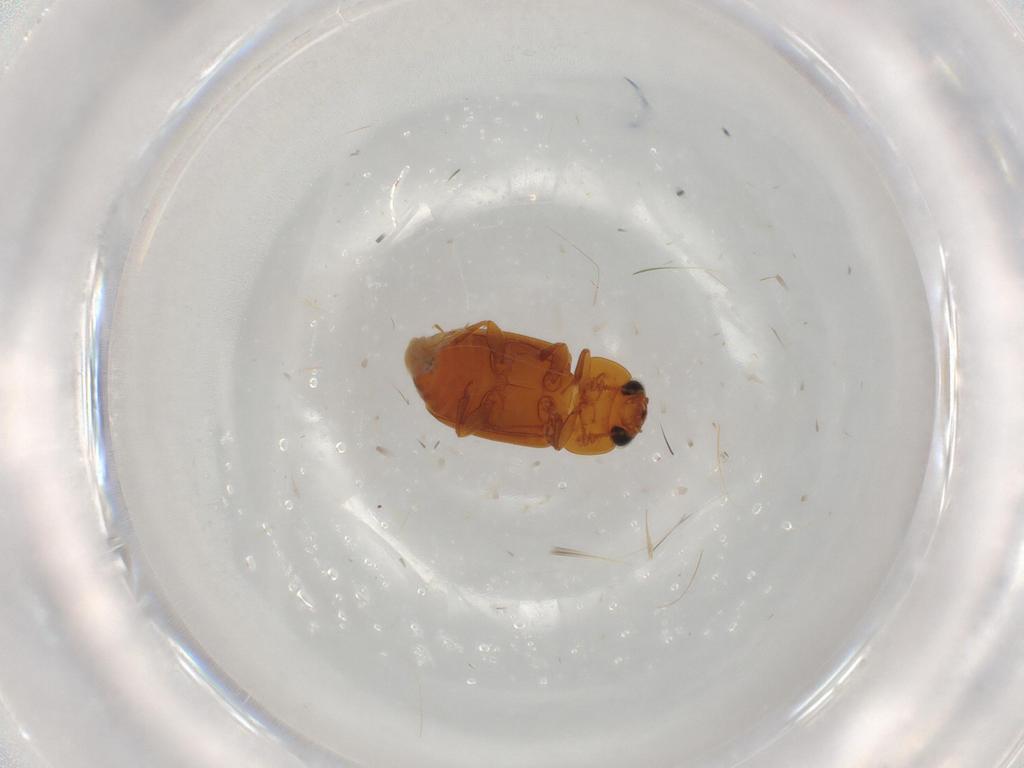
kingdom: Animalia
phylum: Arthropoda
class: Insecta
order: Coleoptera
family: Nitidulidae
